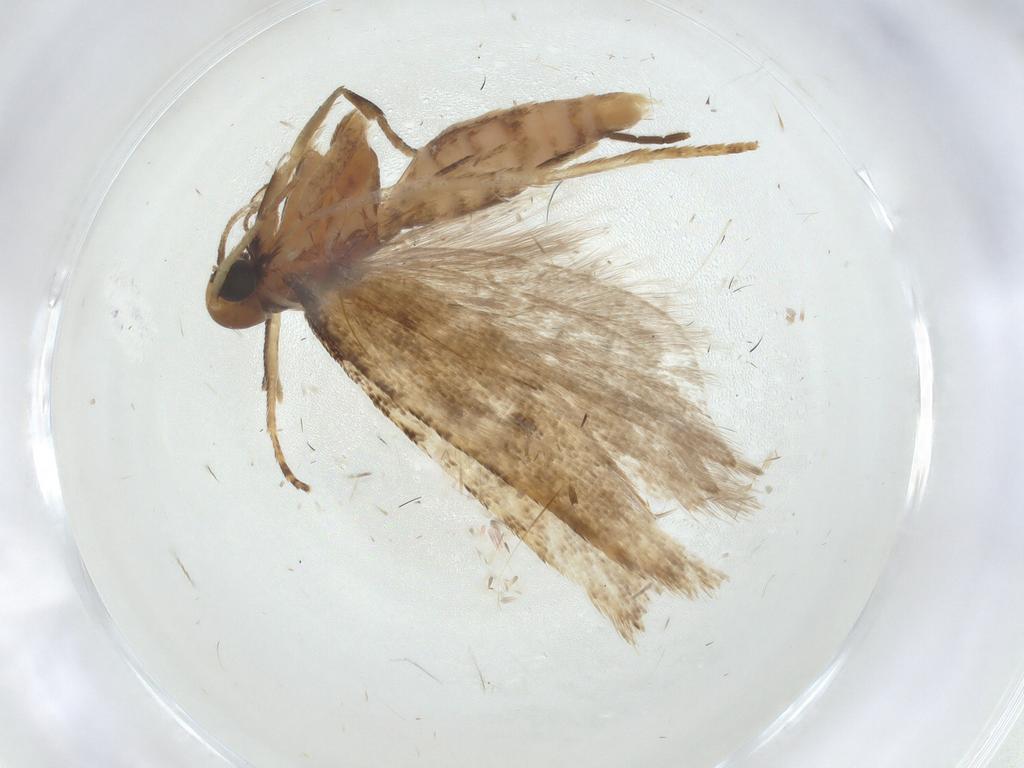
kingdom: Animalia
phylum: Arthropoda
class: Insecta
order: Lepidoptera
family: Gelechiidae
